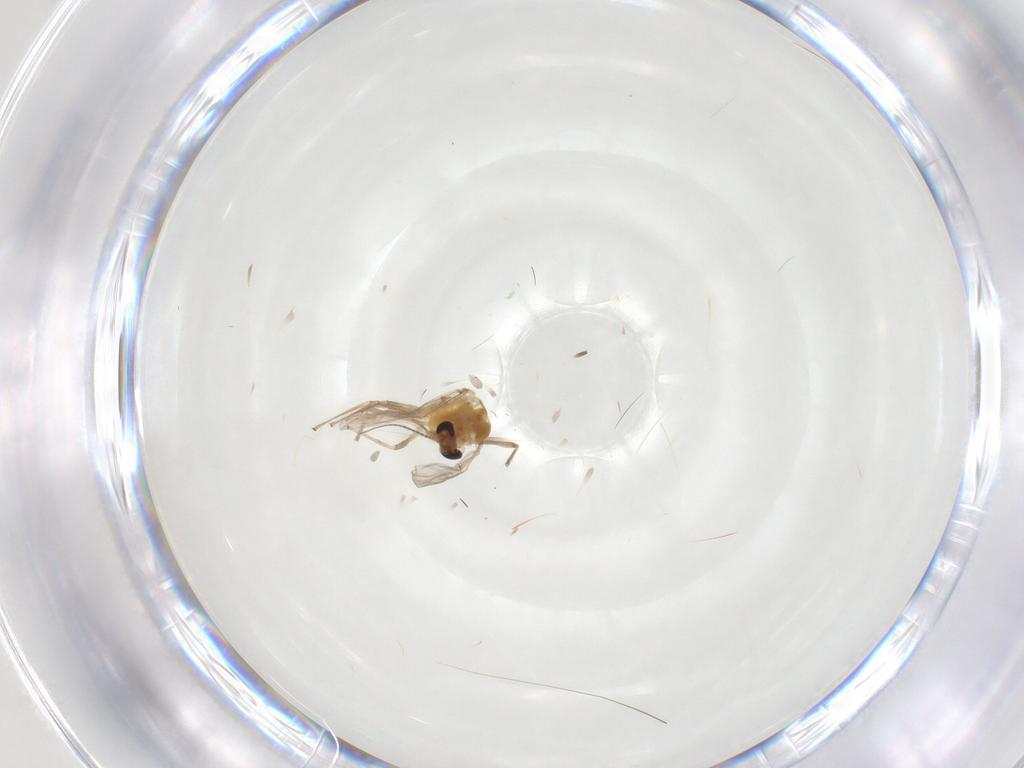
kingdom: Animalia
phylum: Arthropoda
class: Insecta
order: Diptera
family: Chironomidae
